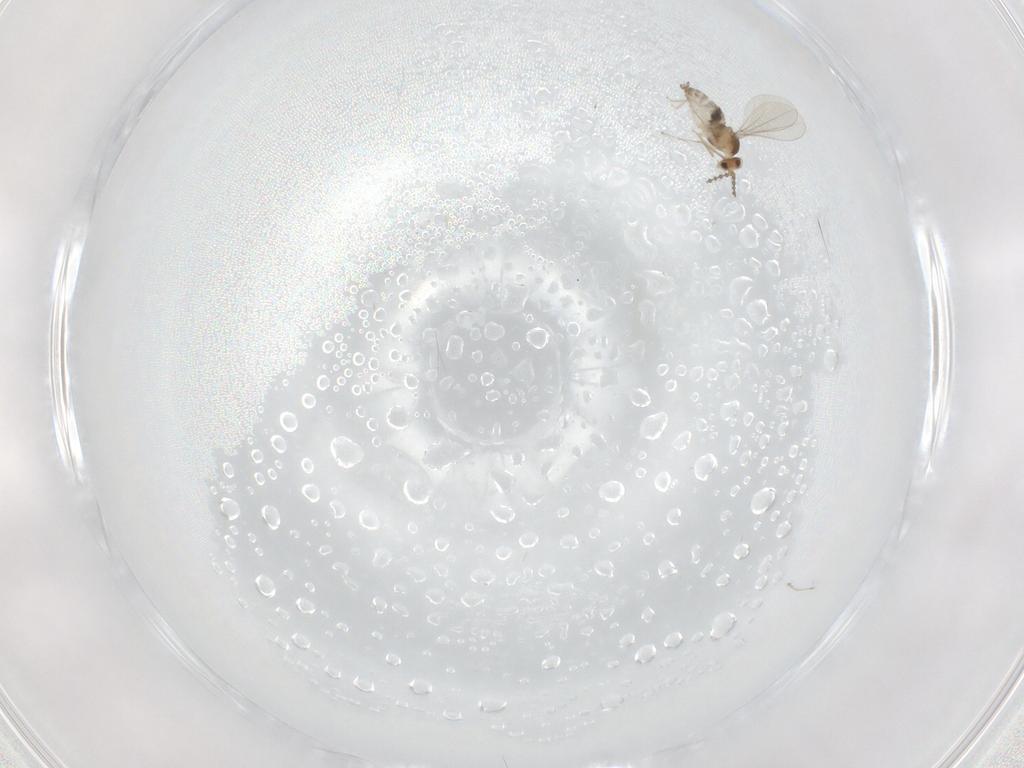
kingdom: Animalia
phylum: Arthropoda
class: Insecta
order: Diptera
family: Cecidomyiidae
